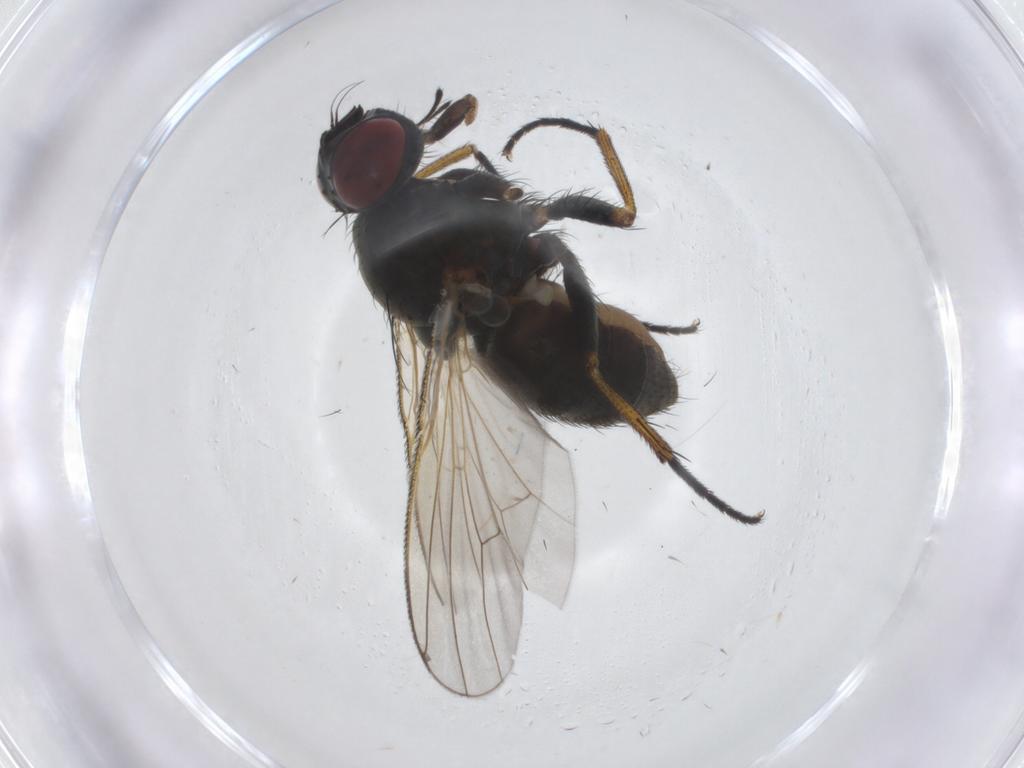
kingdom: Animalia
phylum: Arthropoda
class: Insecta
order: Diptera
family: Muscidae
